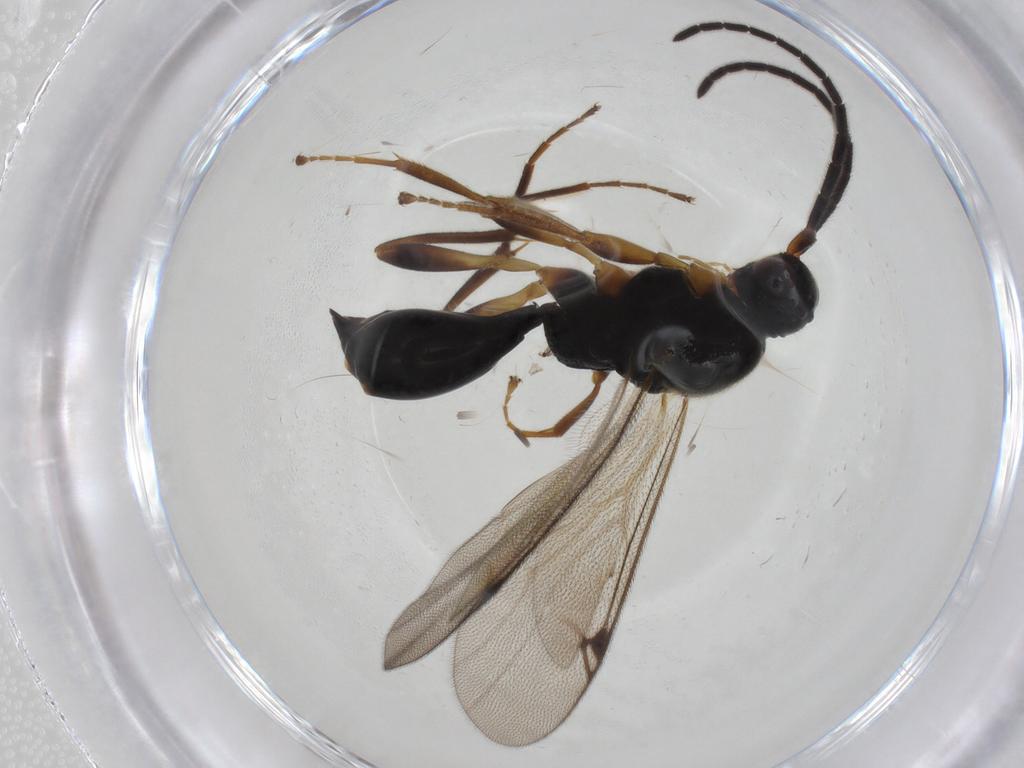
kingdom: Animalia
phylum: Arthropoda
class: Insecta
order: Hymenoptera
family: Proctotrupidae
